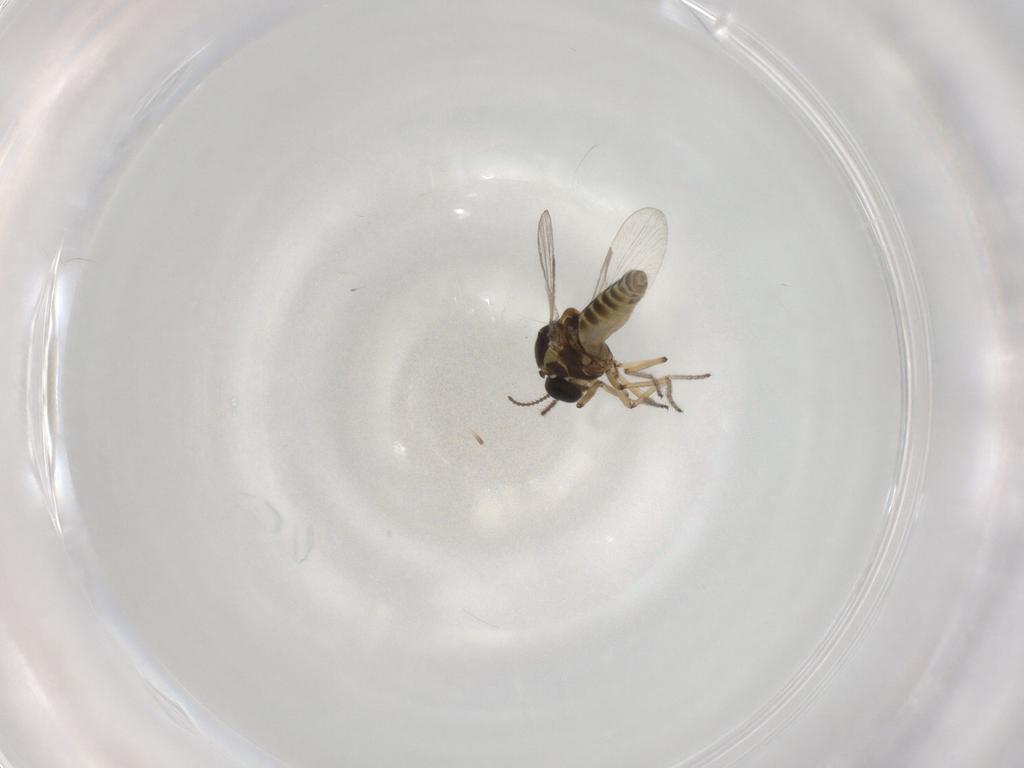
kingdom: Animalia
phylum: Arthropoda
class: Insecta
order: Diptera
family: Ceratopogonidae
